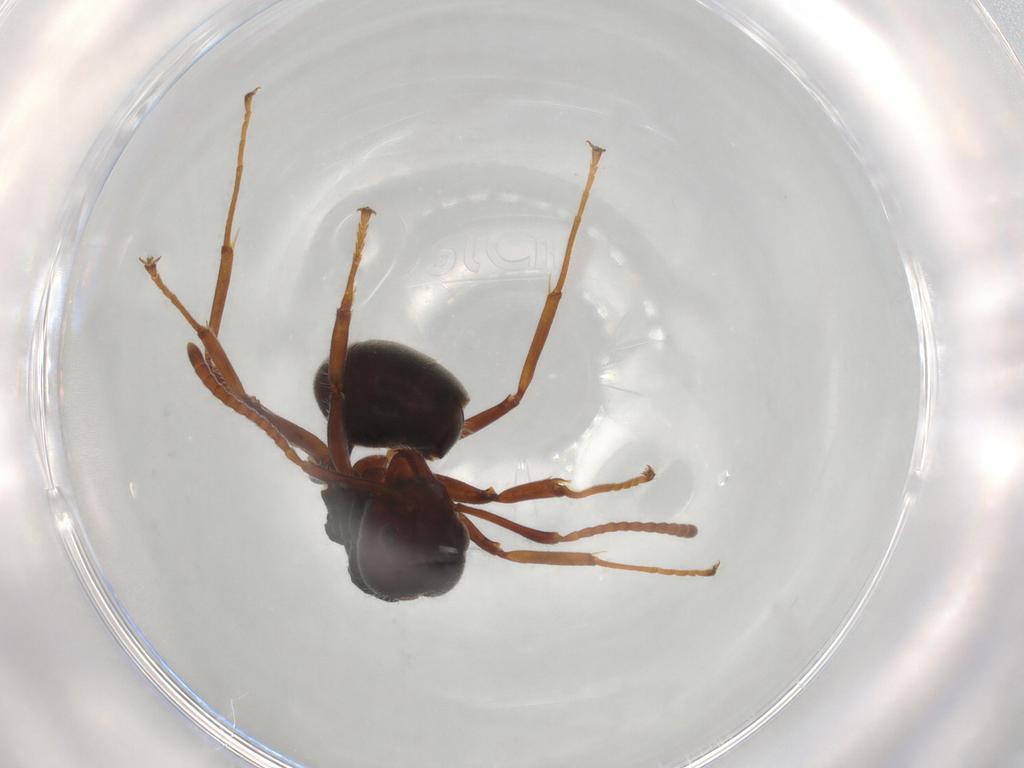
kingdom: Animalia
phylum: Arthropoda
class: Insecta
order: Hymenoptera
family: Formicidae
